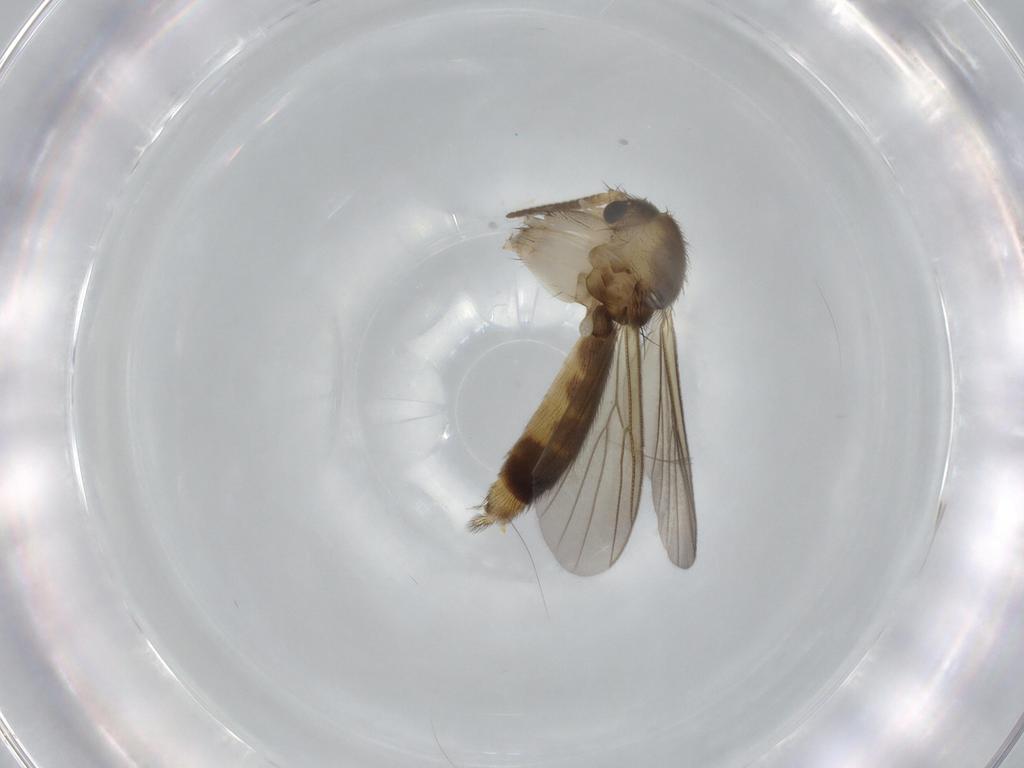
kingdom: Animalia
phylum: Arthropoda
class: Insecta
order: Diptera
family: Mycetophilidae
